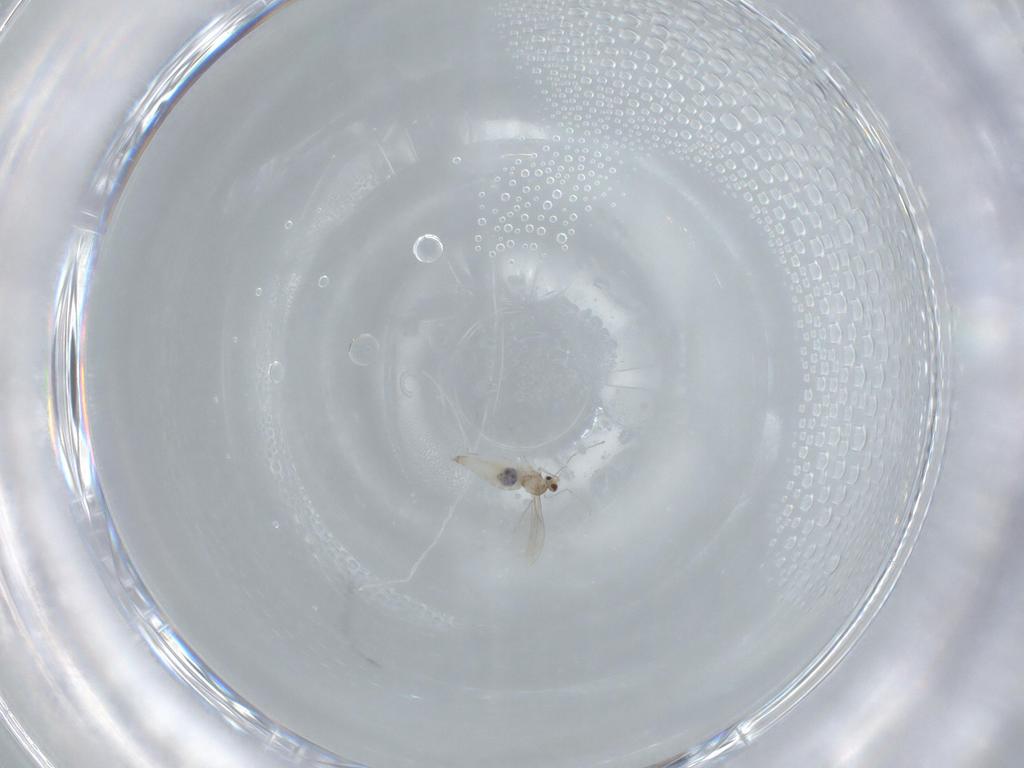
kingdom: Animalia
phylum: Arthropoda
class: Insecta
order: Diptera
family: Cecidomyiidae
